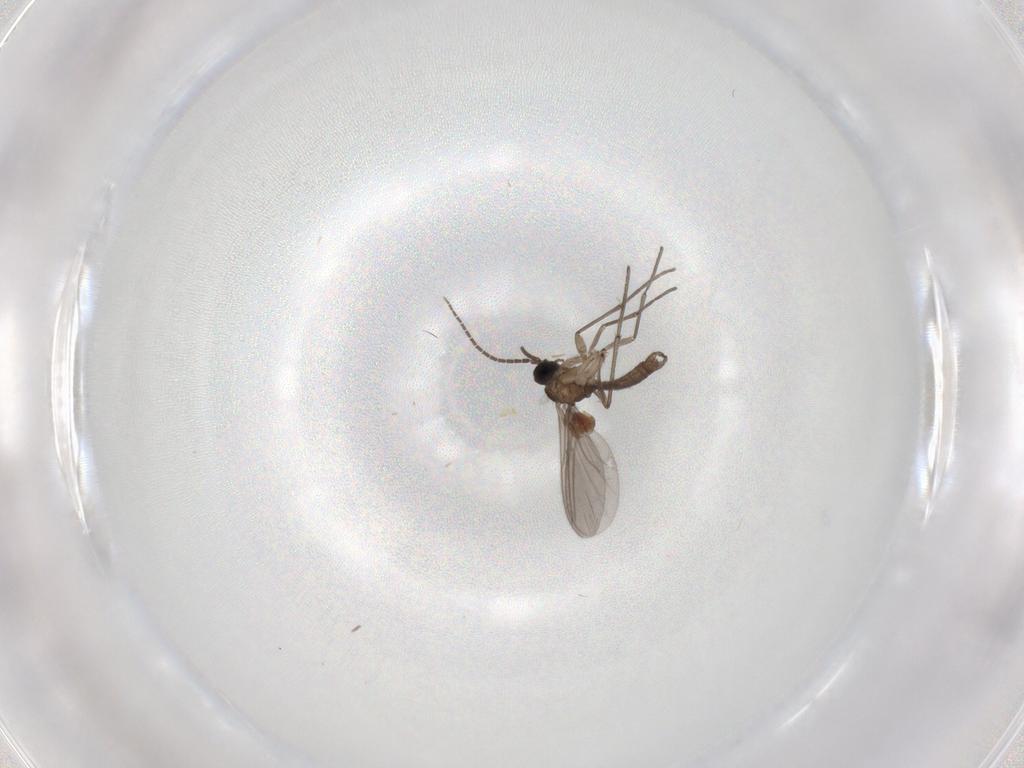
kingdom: Animalia
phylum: Arthropoda
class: Insecta
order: Diptera
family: Sciaridae
